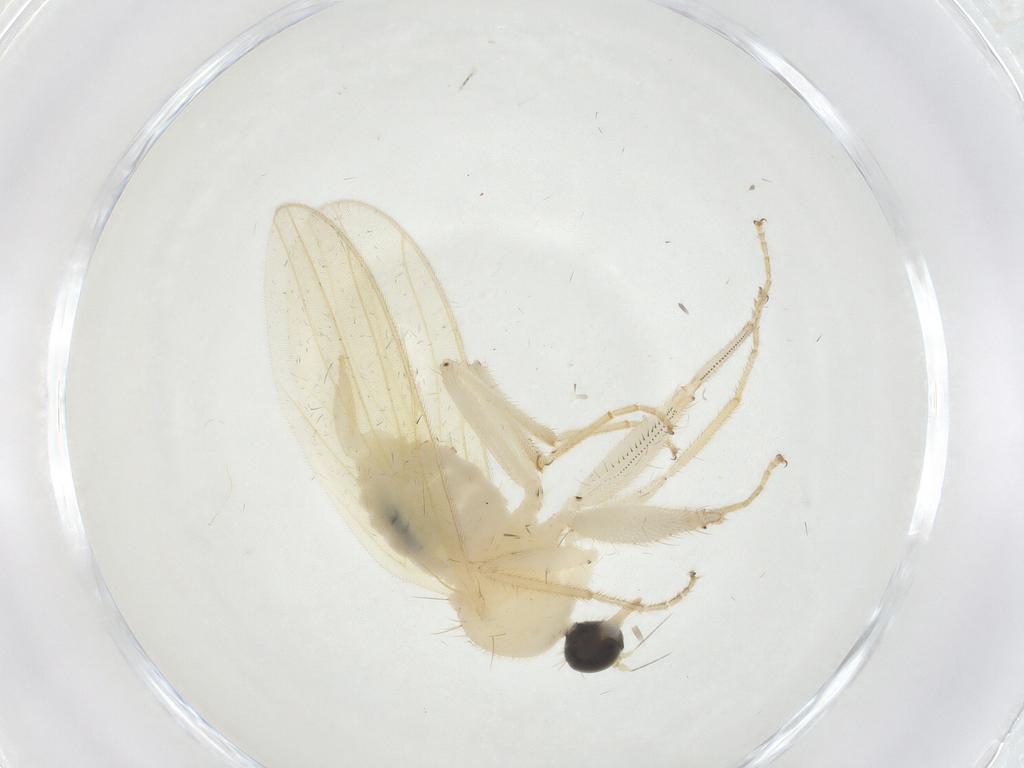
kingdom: Animalia
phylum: Arthropoda
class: Insecta
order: Diptera
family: Hybotidae
